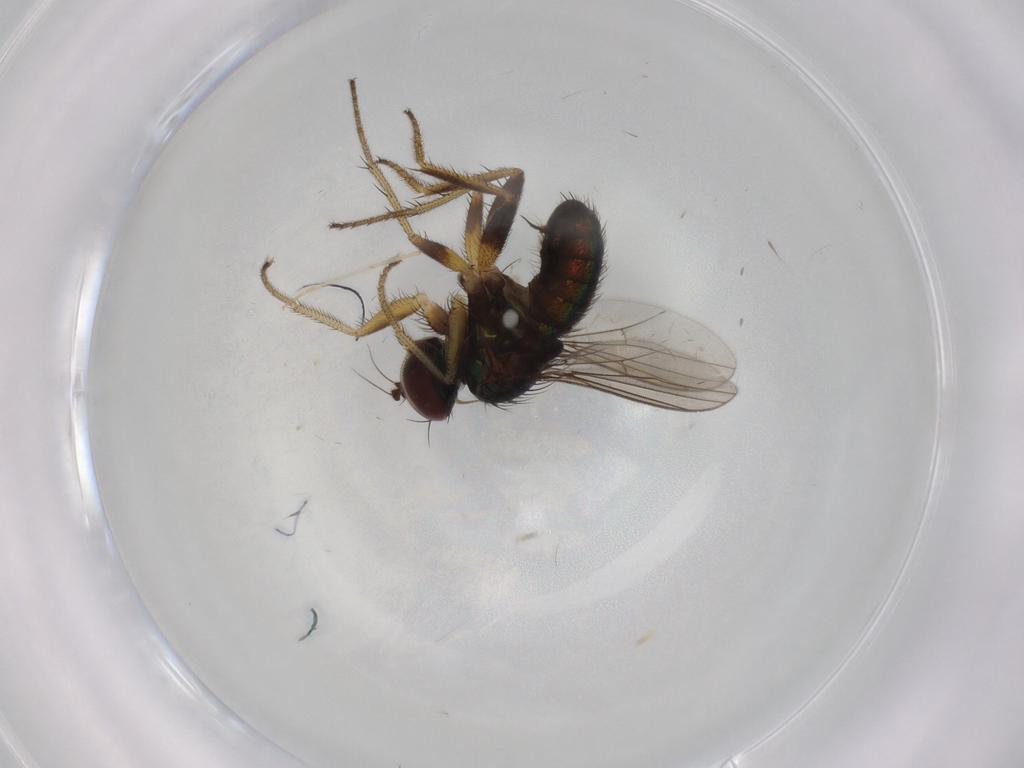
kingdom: Animalia
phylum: Arthropoda
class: Insecta
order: Diptera
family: Dolichopodidae
